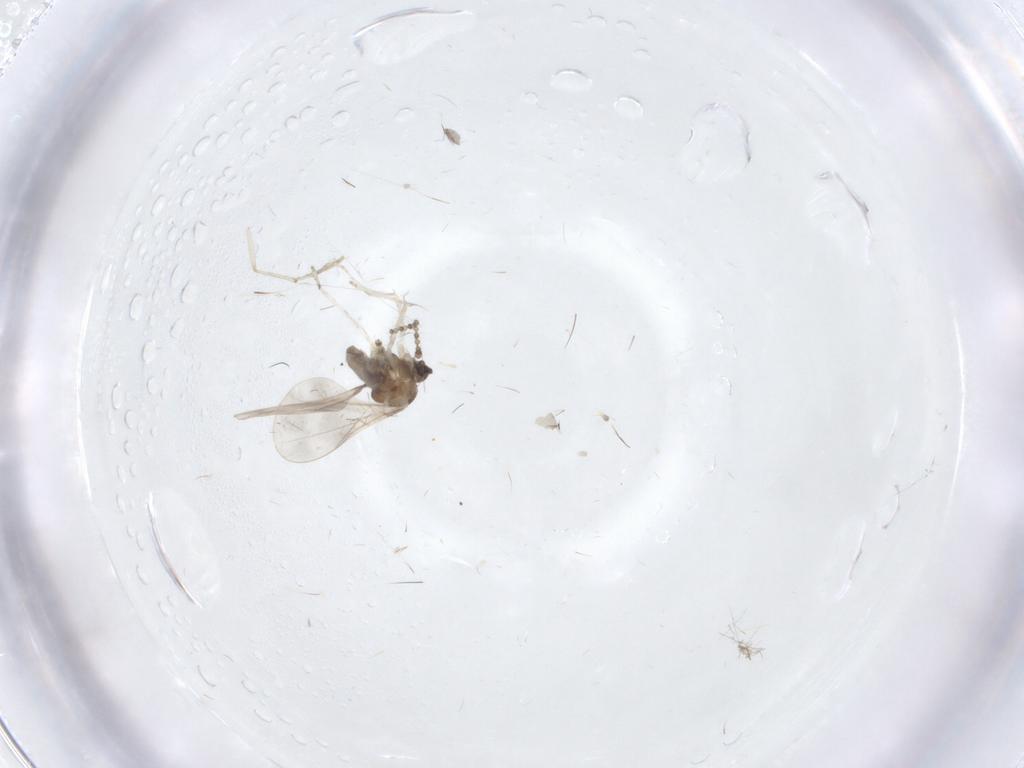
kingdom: Animalia
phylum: Arthropoda
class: Insecta
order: Diptera
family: Cecidomyiidae
